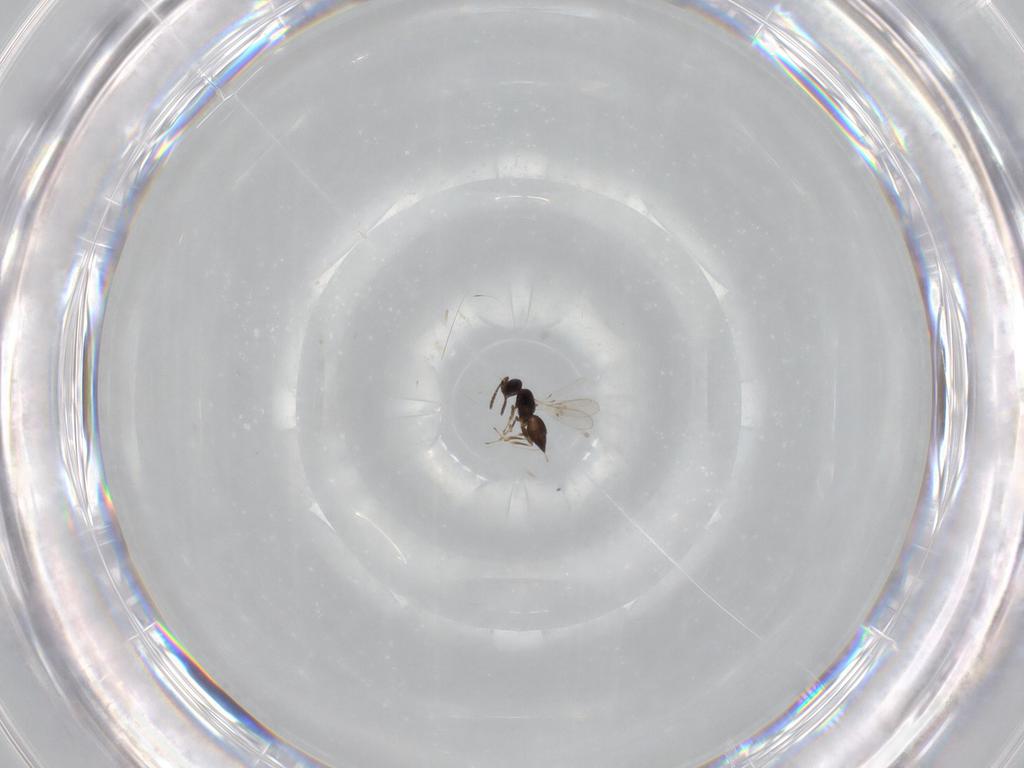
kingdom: Animalia
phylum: Arthropoda
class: Insecta
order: Hymenoptera
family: Scelionidae
